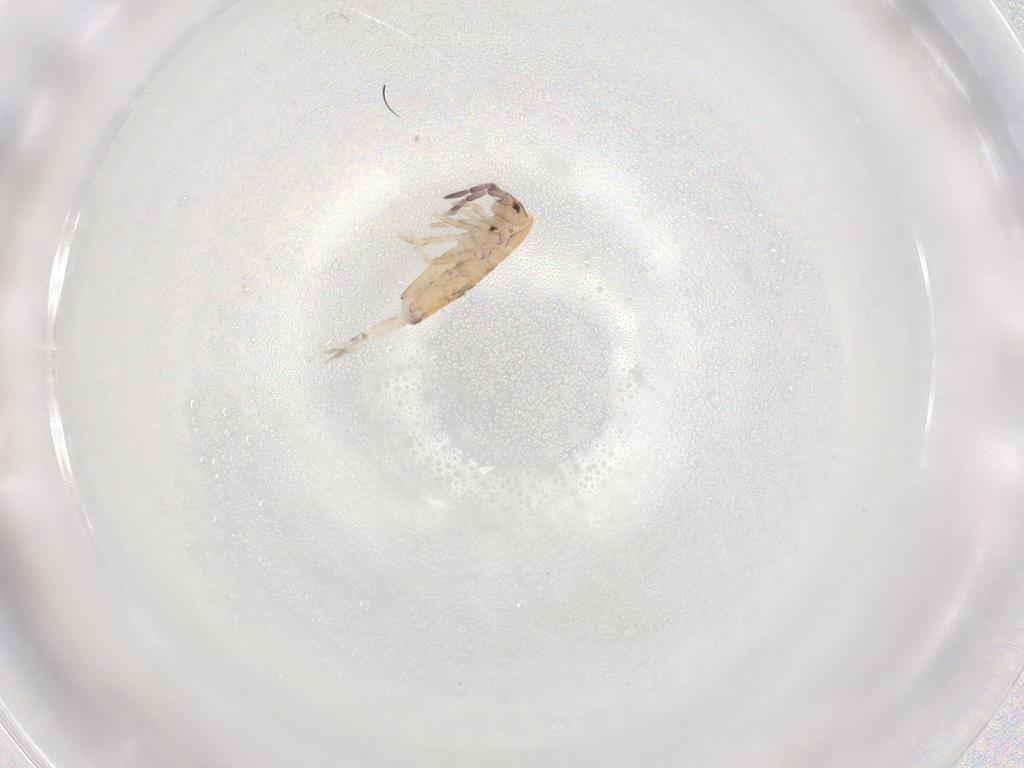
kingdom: Animalia
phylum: Arthropoda
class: Collembola
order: Entomobryomorpha
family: Entomobryidae
